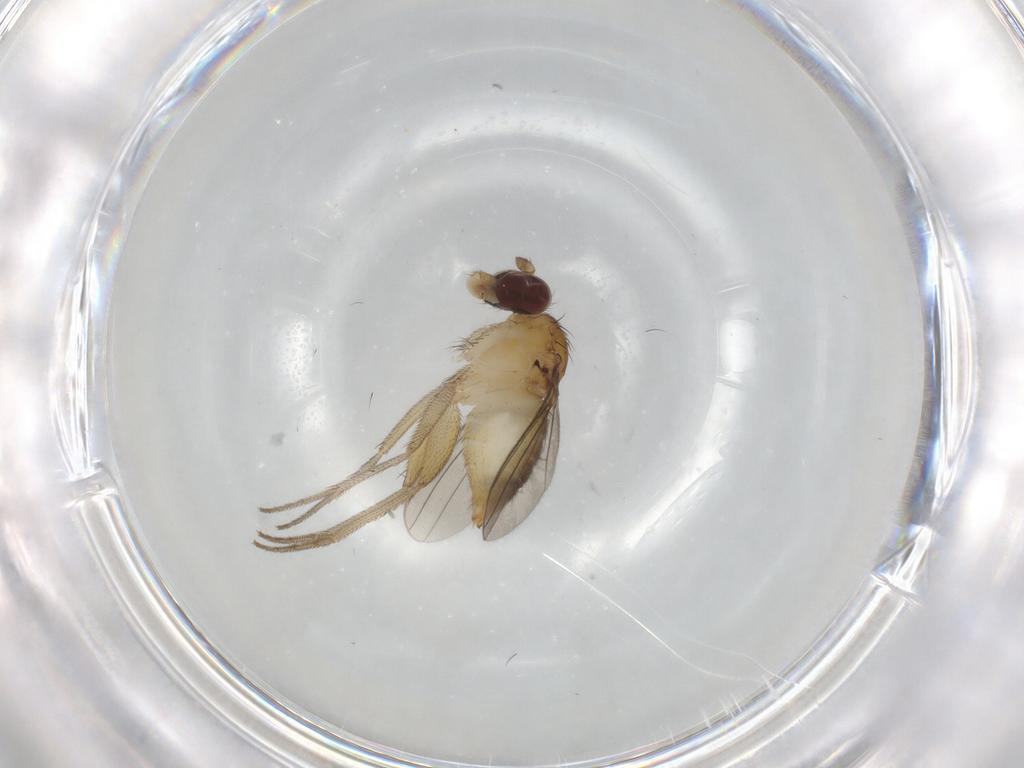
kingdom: Animalia
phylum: Arthropoda
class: Insecta
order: Diptera
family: Dolichopodidae
